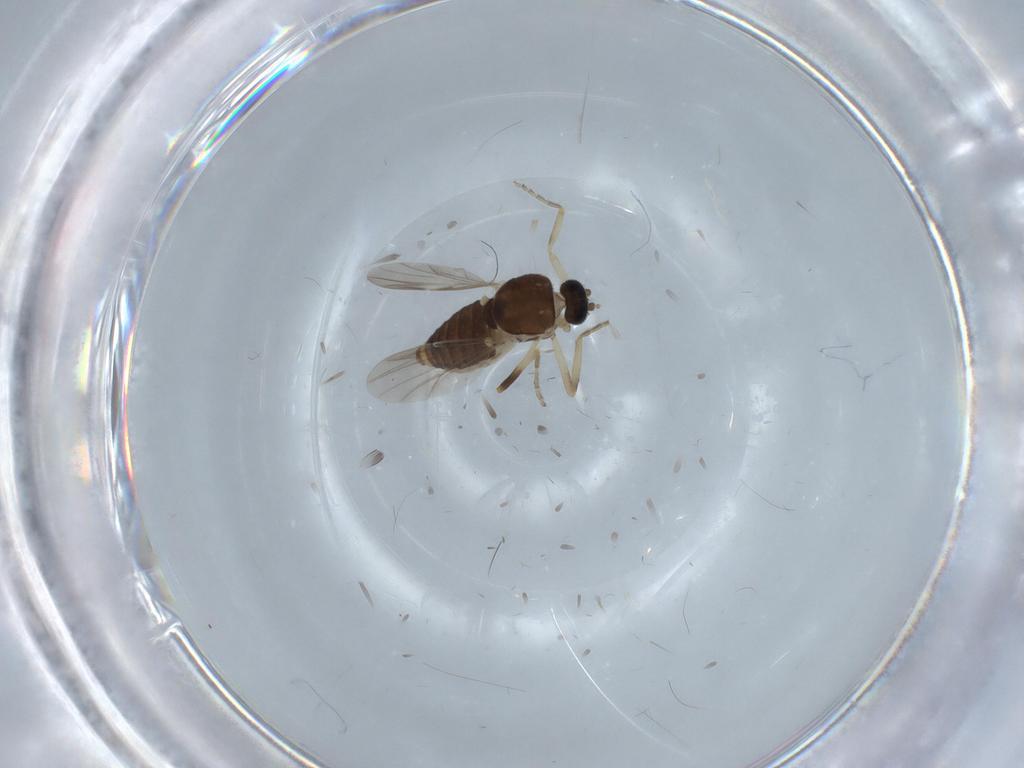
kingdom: Animalia
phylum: Arthropoda
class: Insecta
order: Diptera
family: Ceratopogonidae
